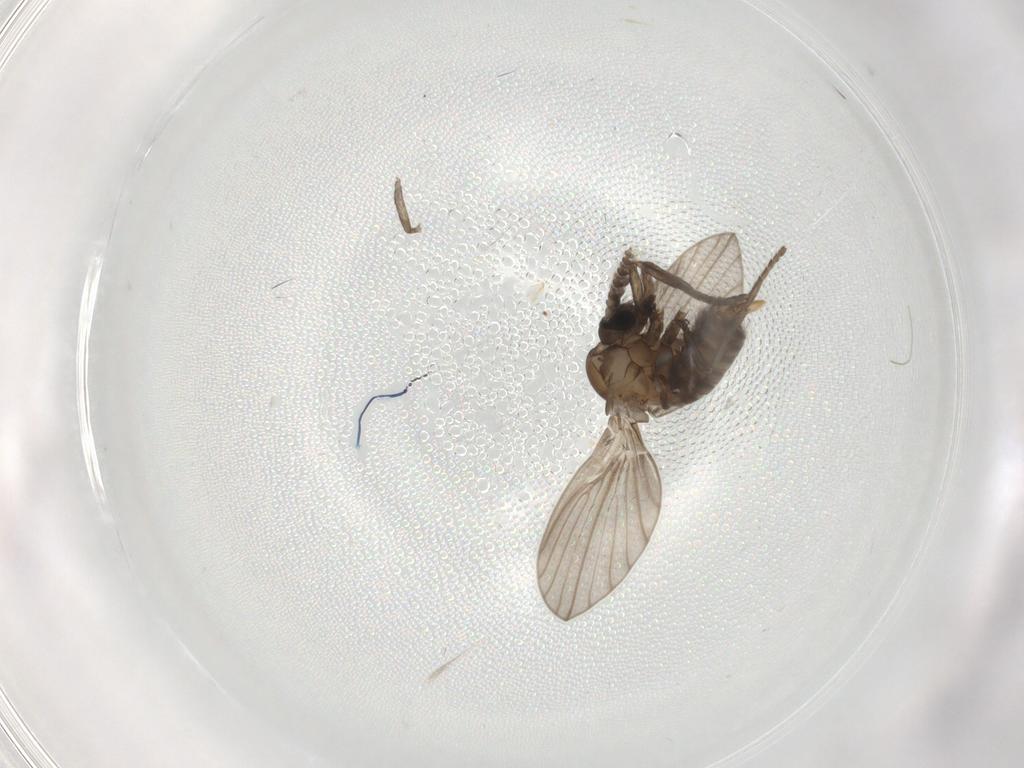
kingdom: Animalia
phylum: Arthropoda
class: Insecta
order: Diptera
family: Psychodidae
